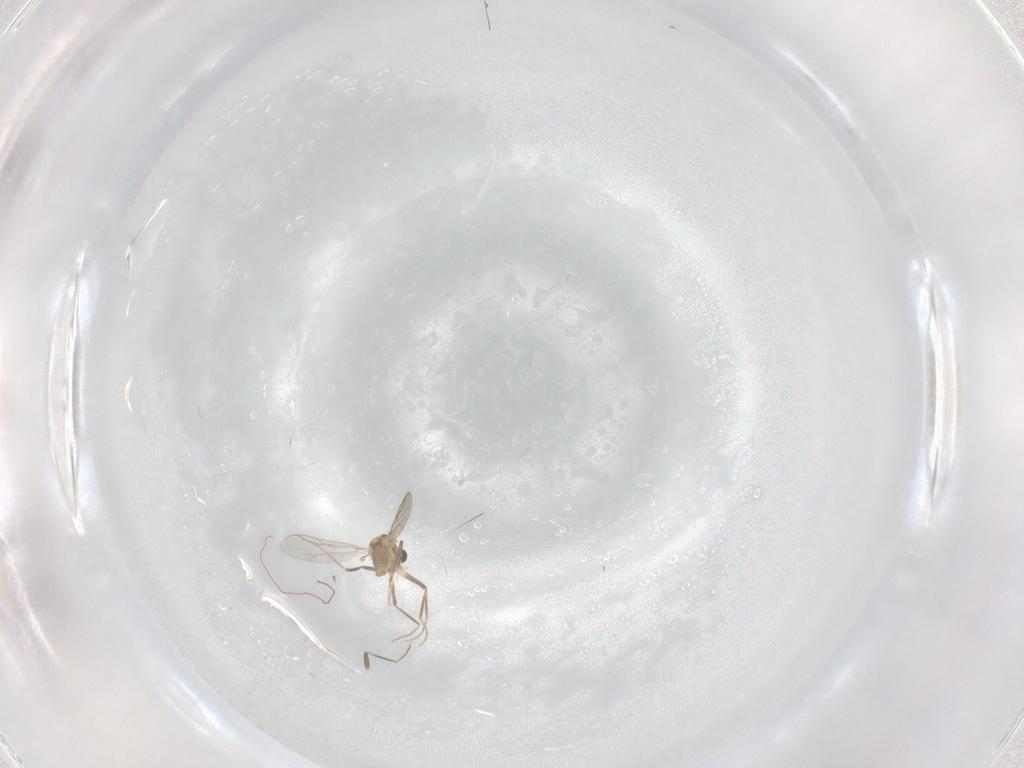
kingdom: Animalia
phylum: Arthropoda
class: Insecta
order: Diptera
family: Chironomidae
